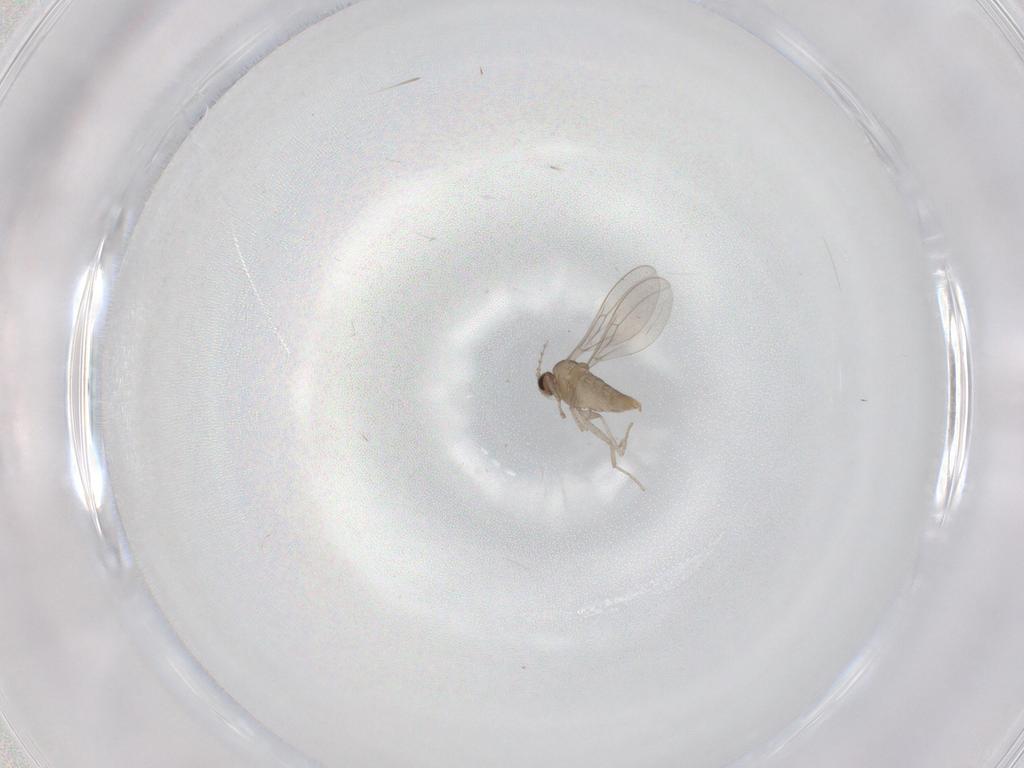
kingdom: Animalia
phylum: Arthropoda
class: Insecta
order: Diptera
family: Cecidomyiidae
